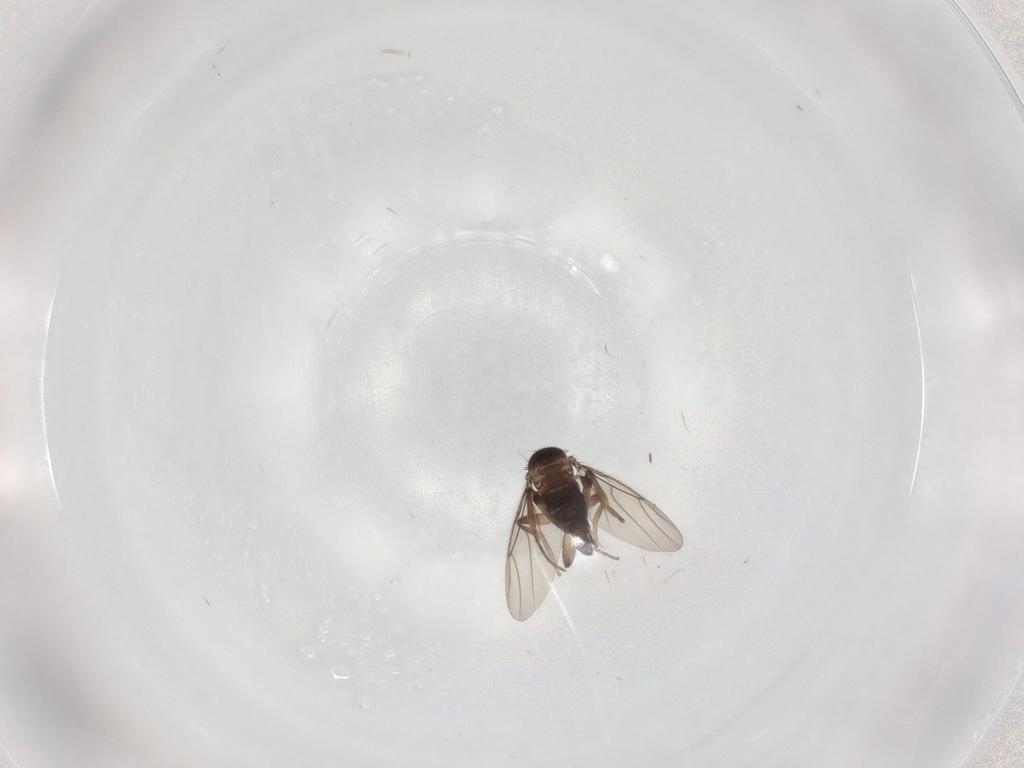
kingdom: Animalia
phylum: Arthropoda
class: Insecta
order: Diptera
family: Phoridae
